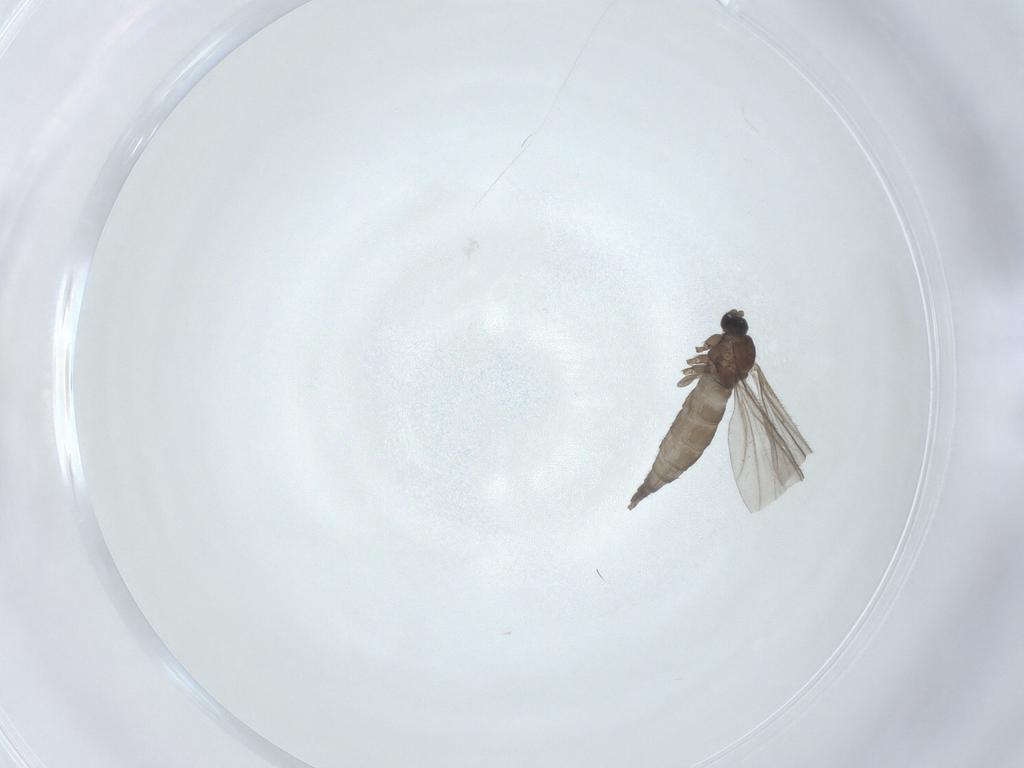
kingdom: Animalia
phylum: Arthropoda
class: Insecta
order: Diptera
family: Sciaridae
